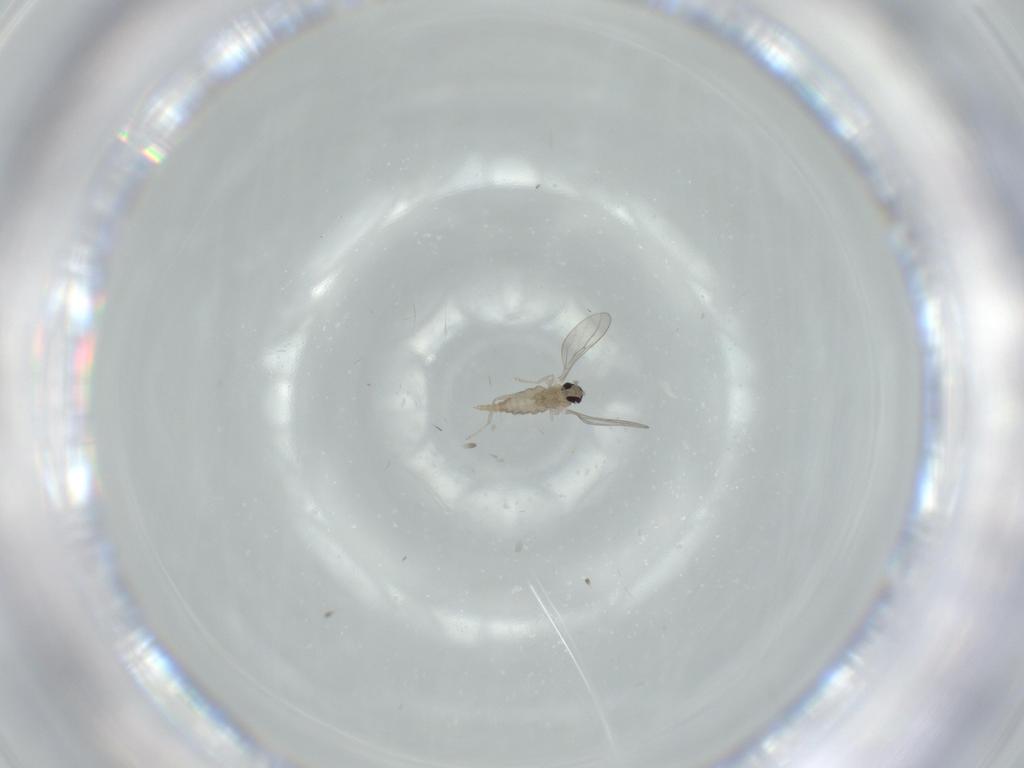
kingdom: Animalia
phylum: Arthropoda
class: Insecta
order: Diptera
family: Cecidomyiidae
